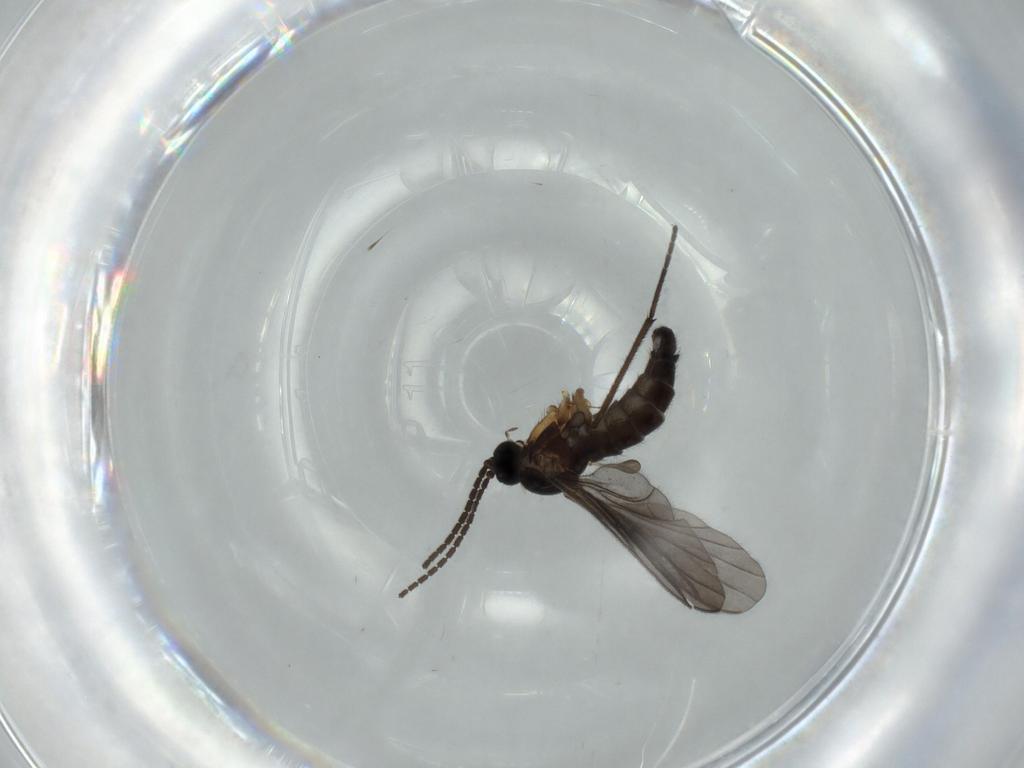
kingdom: Animalia
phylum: Arthropoda
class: Insecta
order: Diptera
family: Sciaridae
